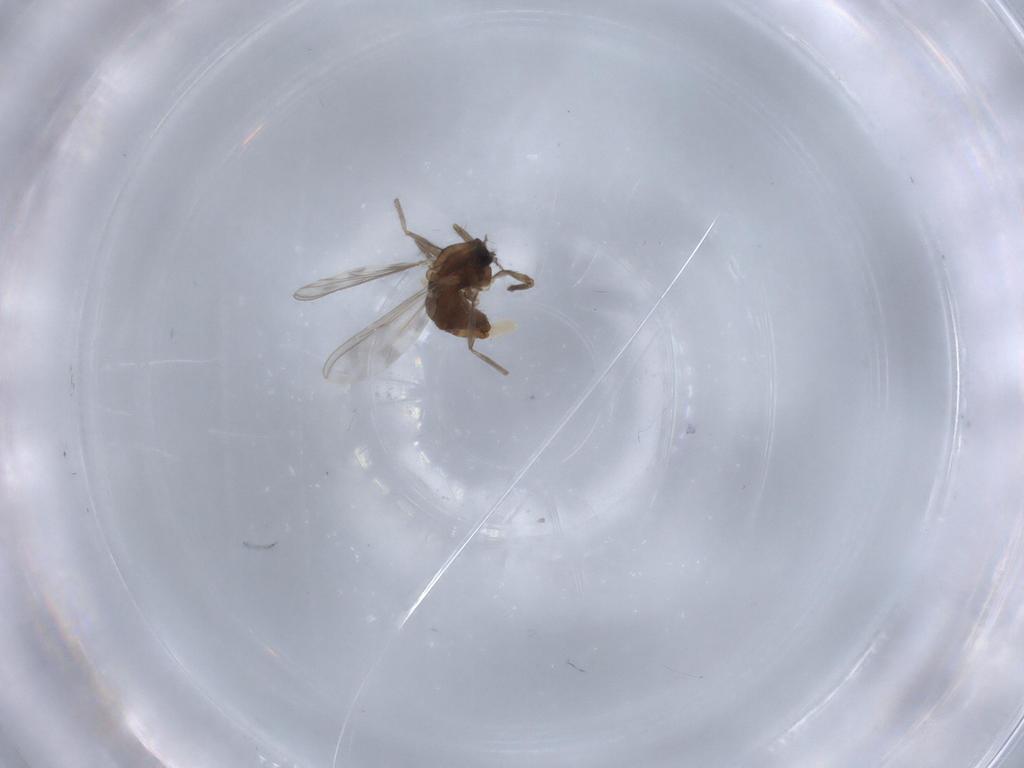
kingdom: Animalia
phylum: Arthropoda
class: Insecta
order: Diptera
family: Chironomidae
